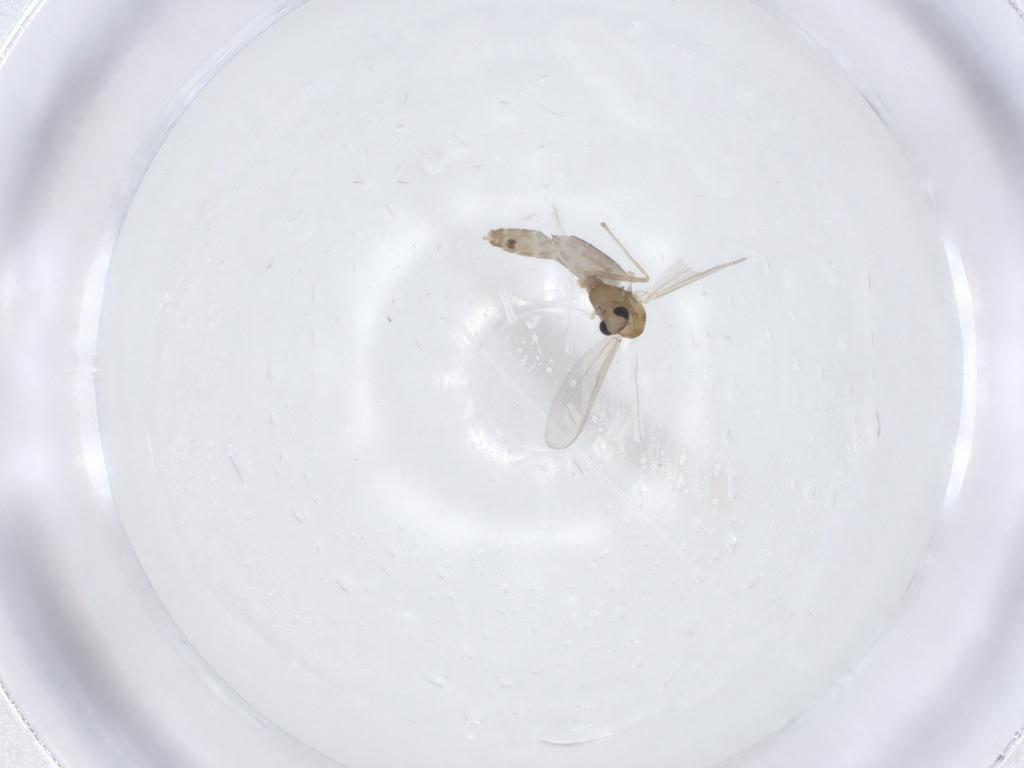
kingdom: Animalia
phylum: Arthropoda
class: Insecta
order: Diptera
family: Chironomidae
